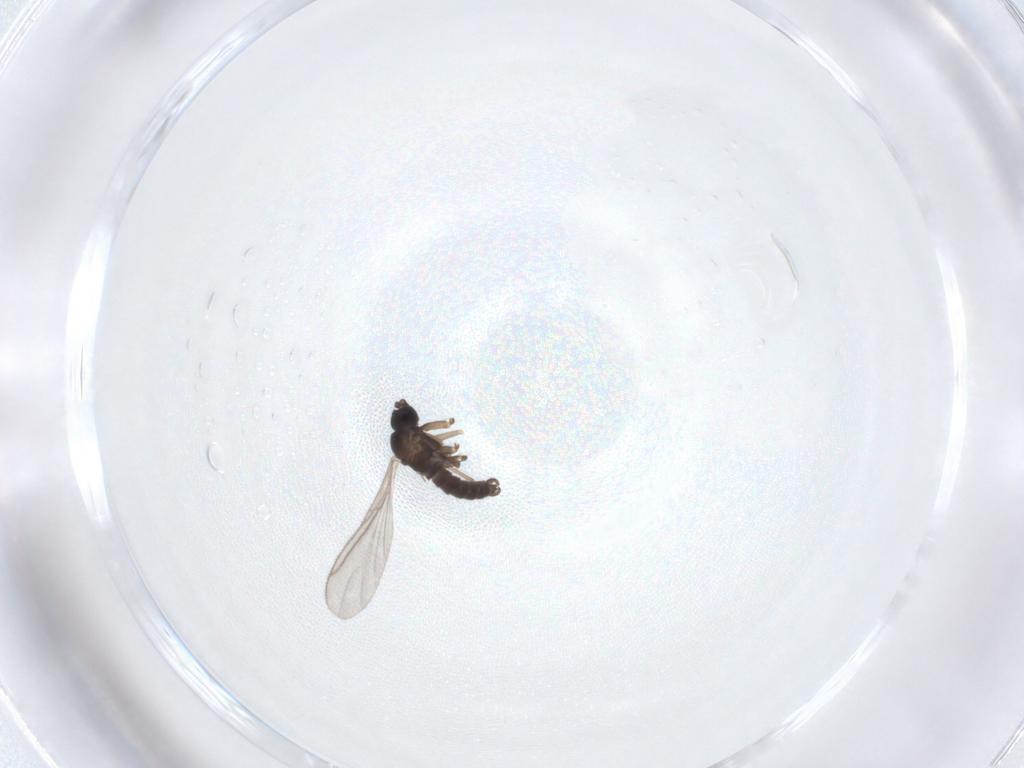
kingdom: Animalia
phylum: Arthropoda
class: Insecta
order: Diptera
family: Sciaridae
